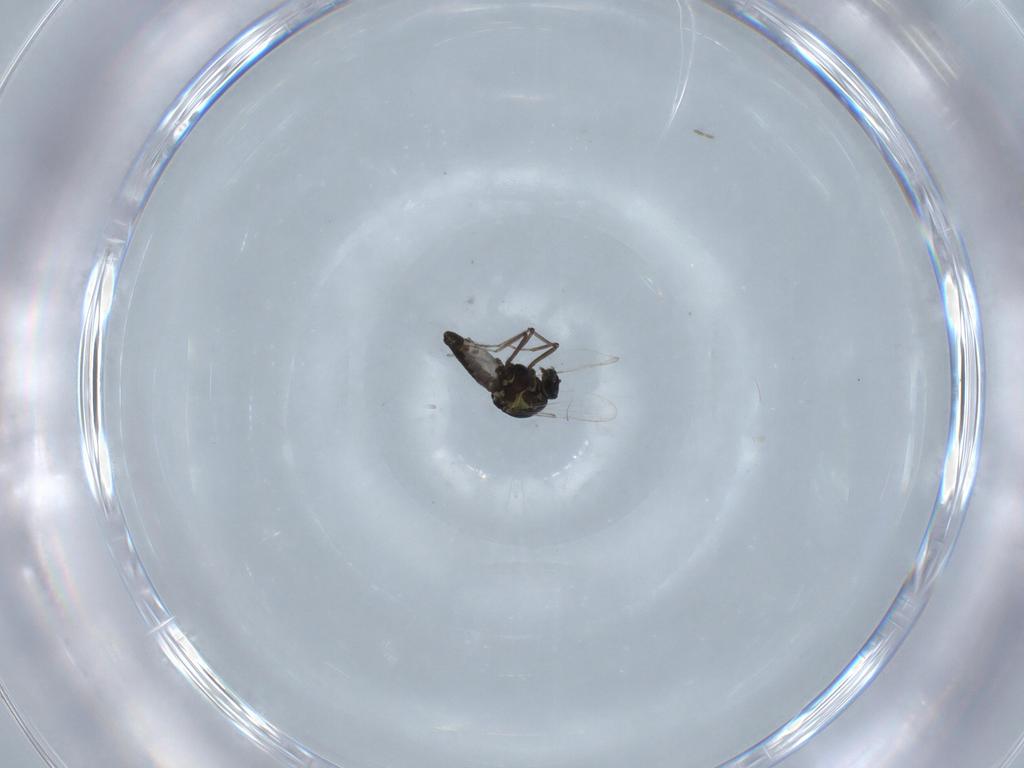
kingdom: Animalia
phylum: Arthropoda
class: Insecta
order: Diptera
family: Ceratopogonidae
